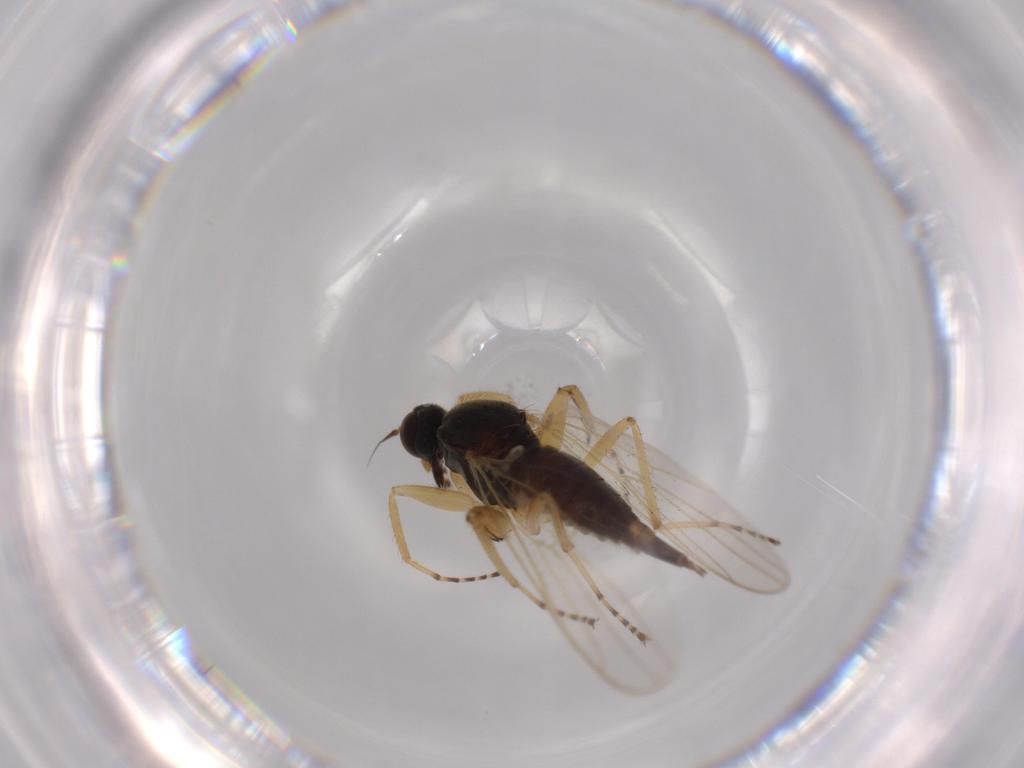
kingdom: Animalia
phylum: Arthropoda
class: Insecta
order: Diptera
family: Hybotidae
